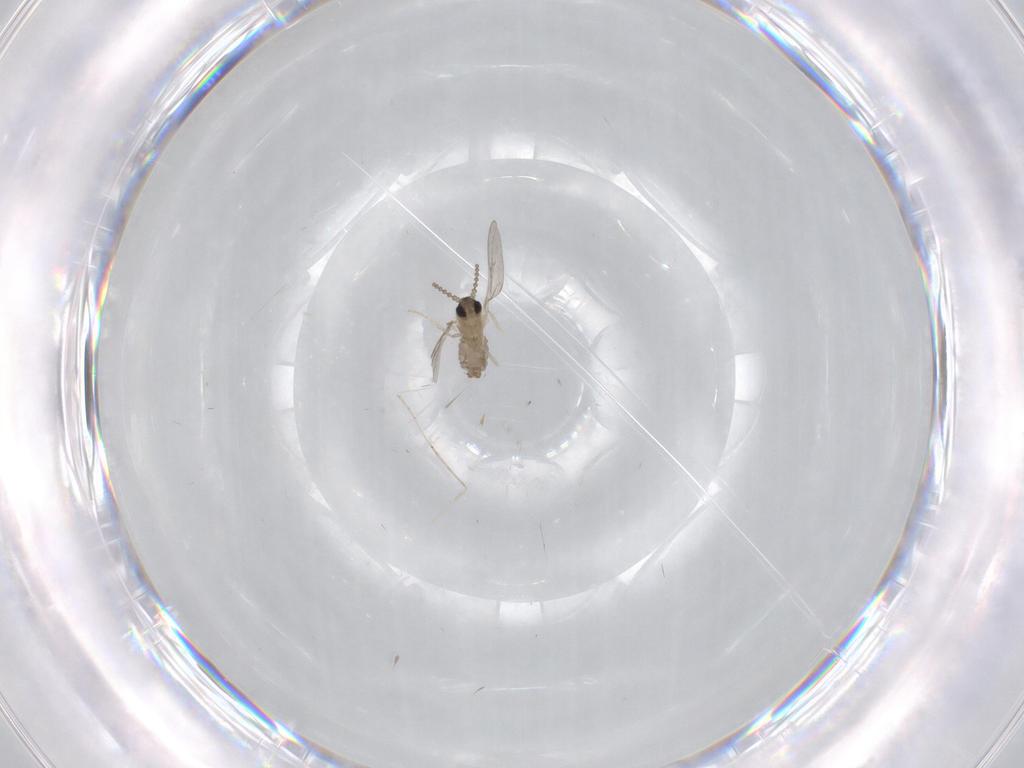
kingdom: Animalia
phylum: Arthropoda
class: Insecta
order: Diptera
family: Cecidomyiidae
